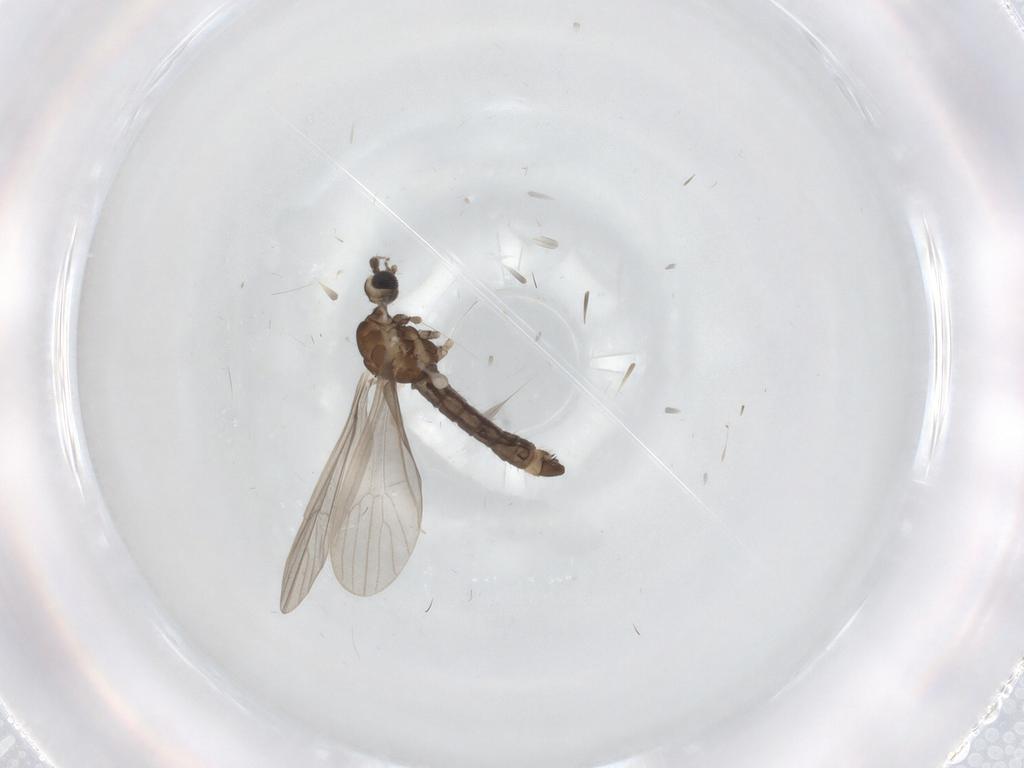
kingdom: Animalia
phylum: Arthropoda
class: Insecta
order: Diptera
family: Limoniidae
